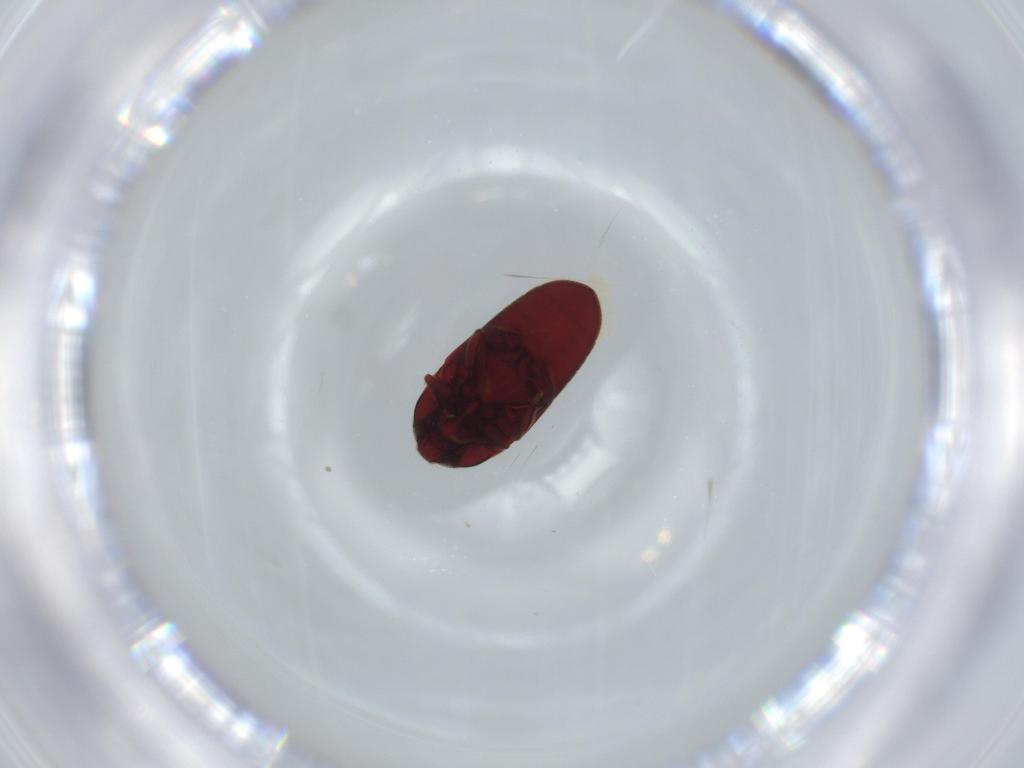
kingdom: Animalia
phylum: Arthropoda
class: Insecta
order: Coleoptera
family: Throscidae
